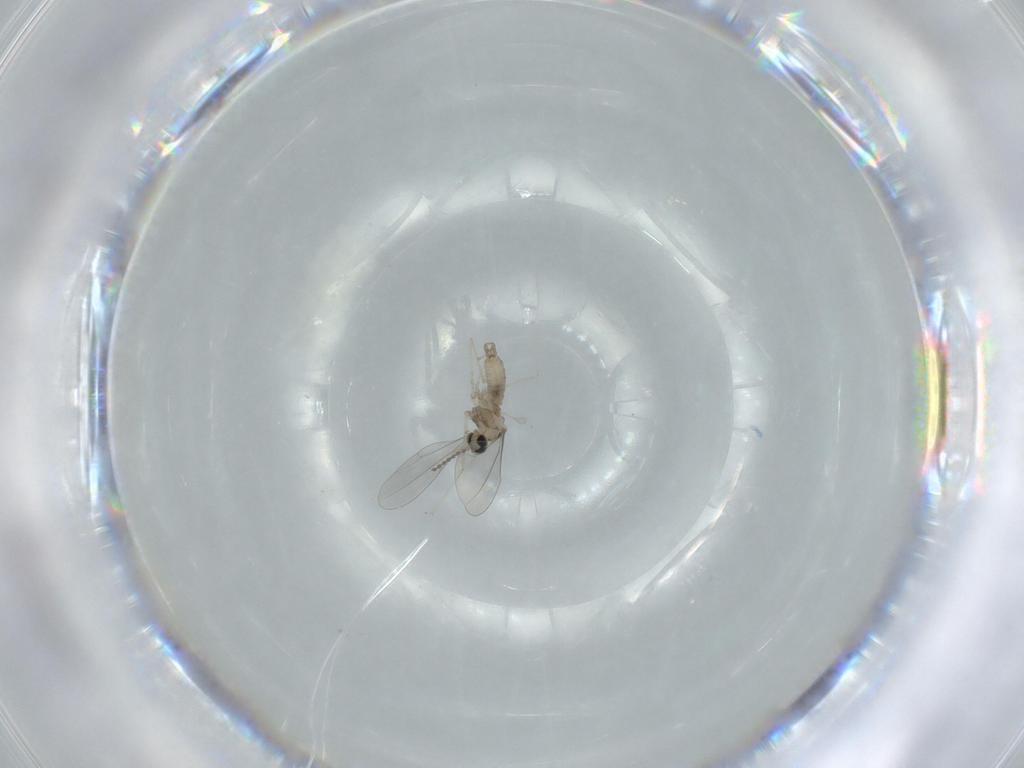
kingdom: Animalia
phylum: Arthropoda
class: Insecta
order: Diptera
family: Cecidomyiidae
